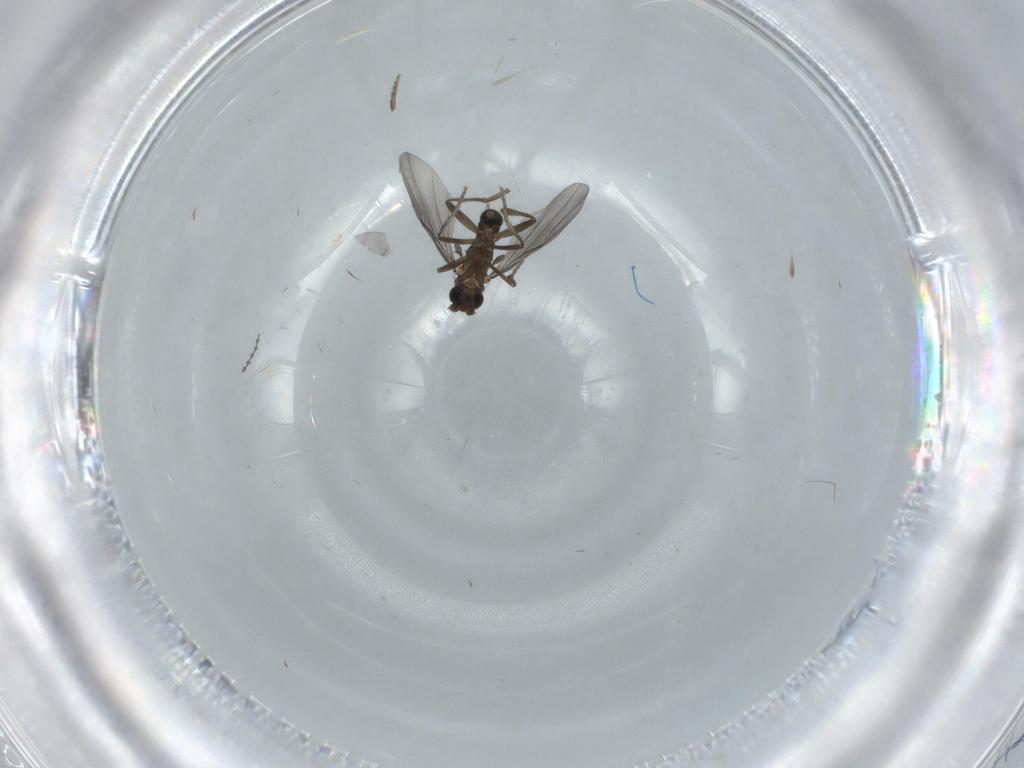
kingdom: Animalia
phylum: Arthropoda
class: Insecta
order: Diptera
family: Phoridae
